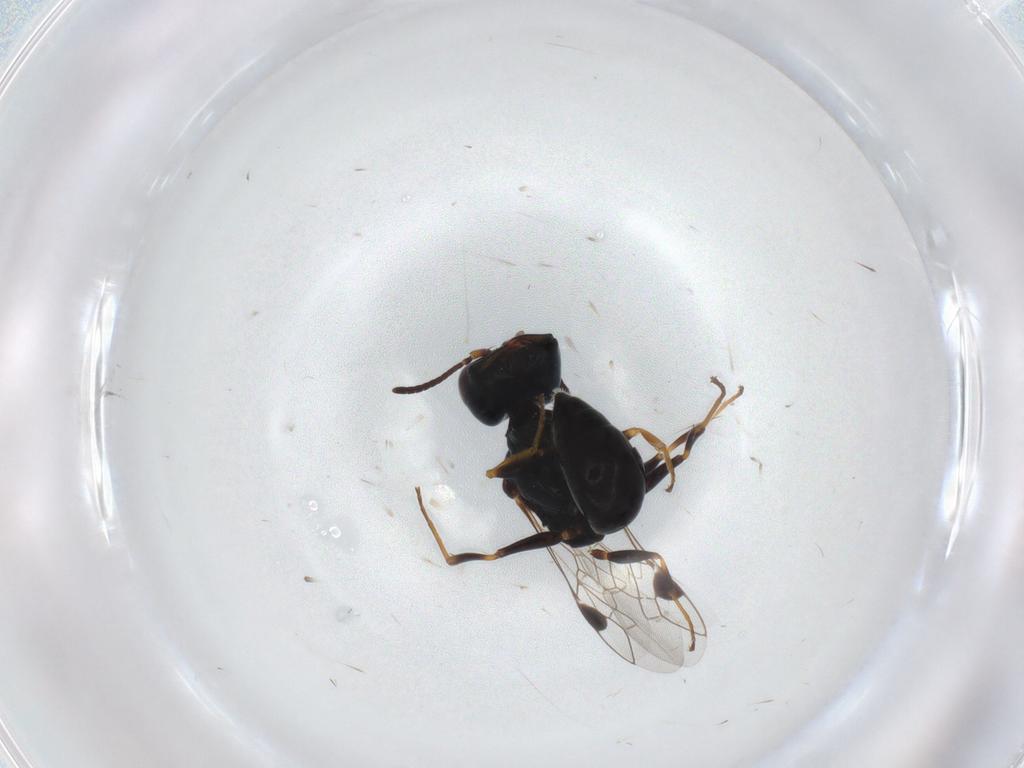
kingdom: Animalia
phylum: Arthropoda
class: Insecta
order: Hymenoptera
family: Pemphredonidae
